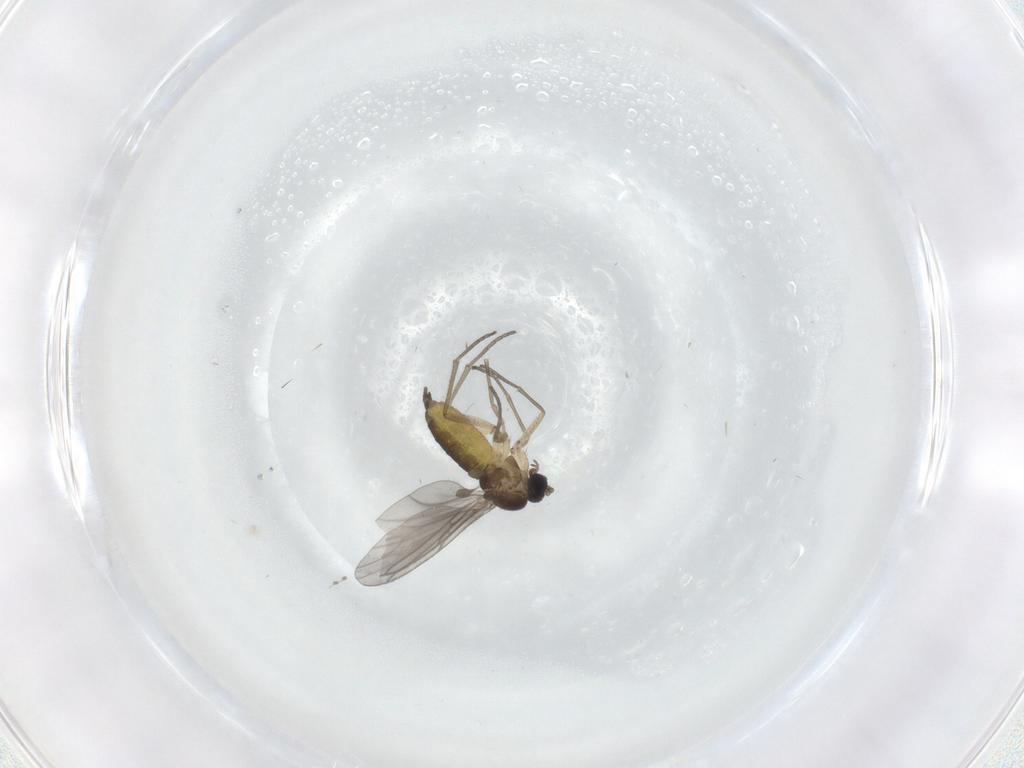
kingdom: Animalia
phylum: Arthropoda
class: Insecta
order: Diptera
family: Sciaridae
